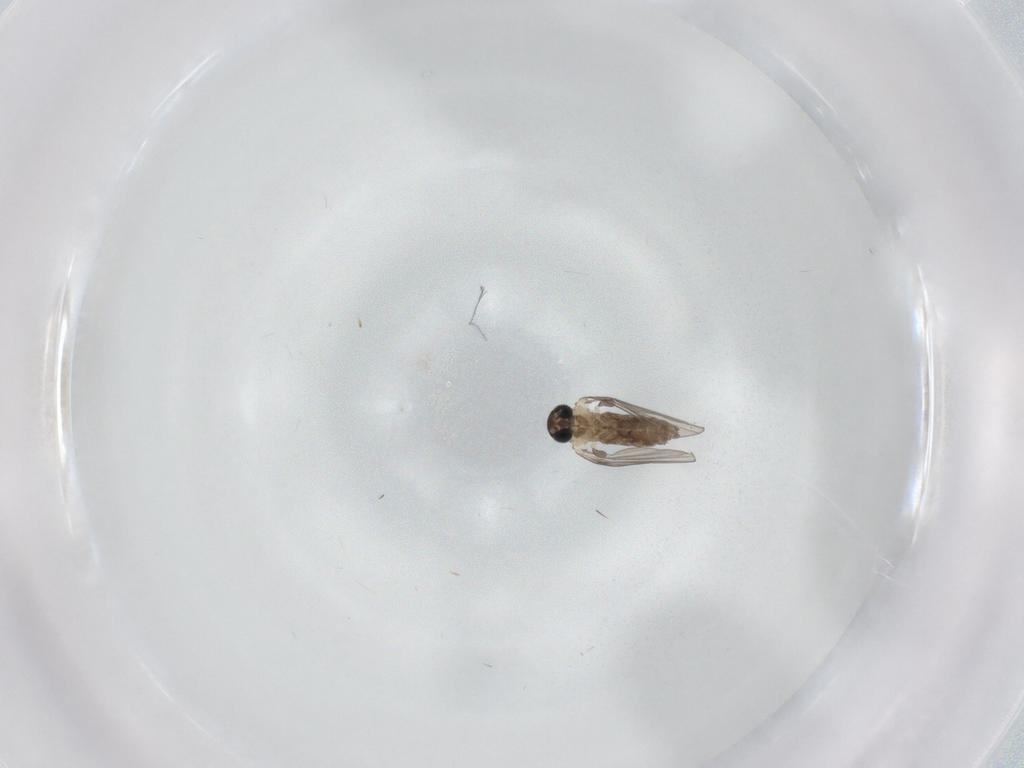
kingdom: Animalia
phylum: Arthropoda
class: Insecta
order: Diptera
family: Psychodidae
